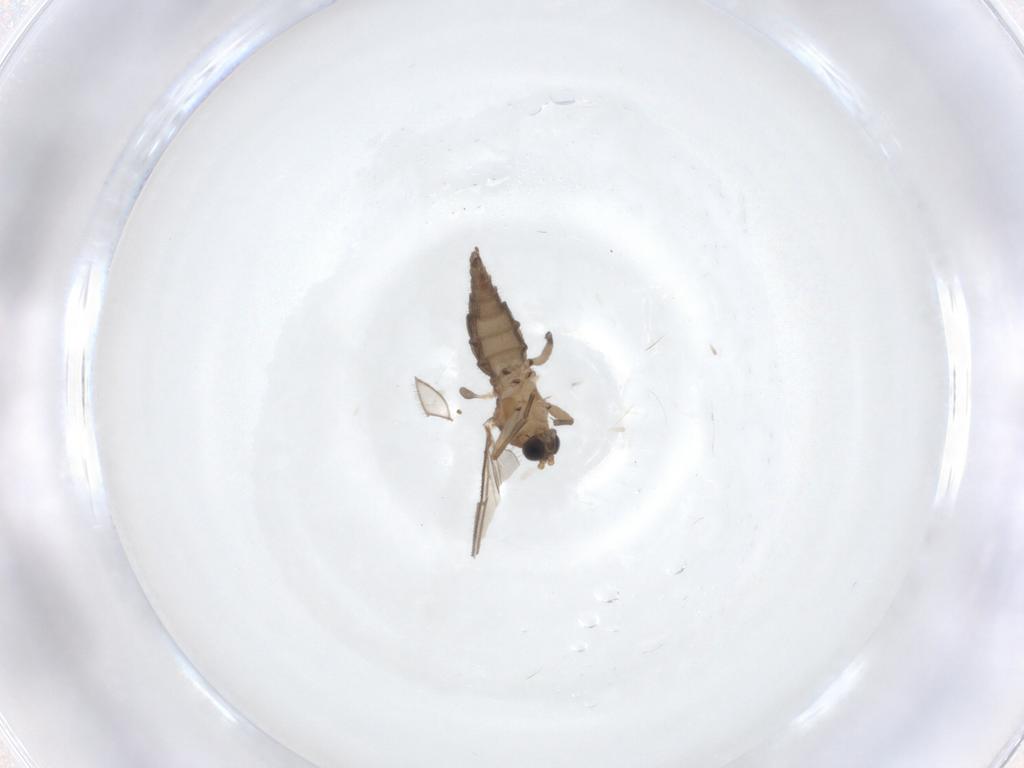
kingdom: Animalia
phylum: Arthropoda
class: Insecta
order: Diptera
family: Sciaridae
